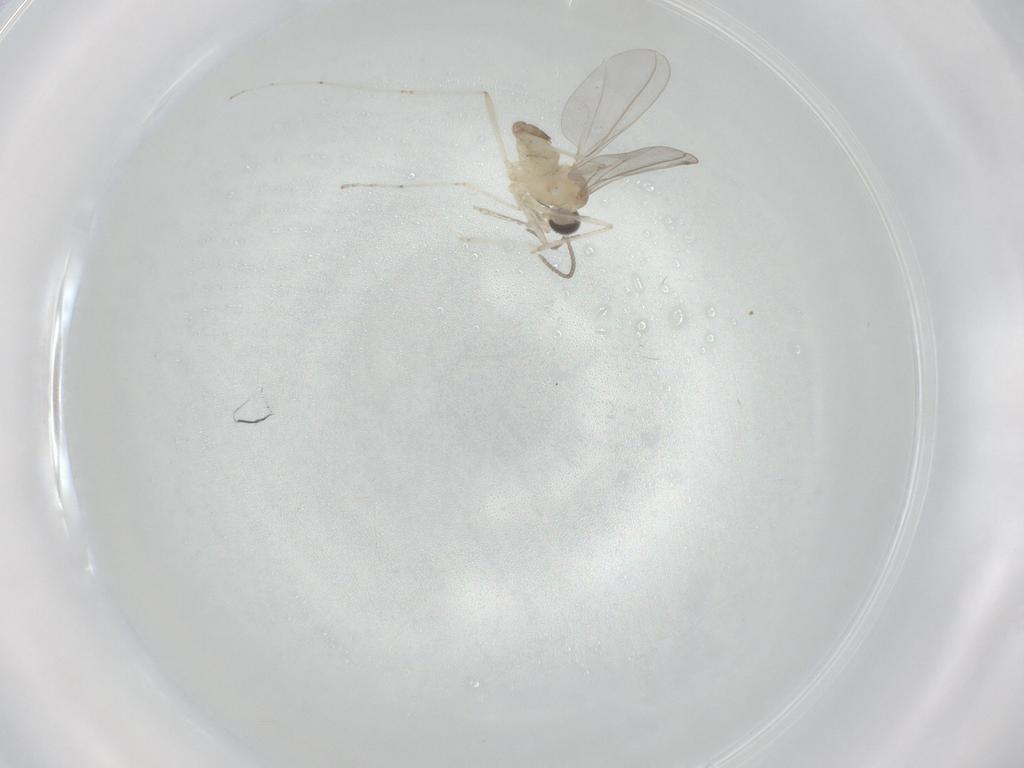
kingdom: Animalia
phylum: Arthropoda
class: Insecta
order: Diptera
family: Cecidomyiidae
